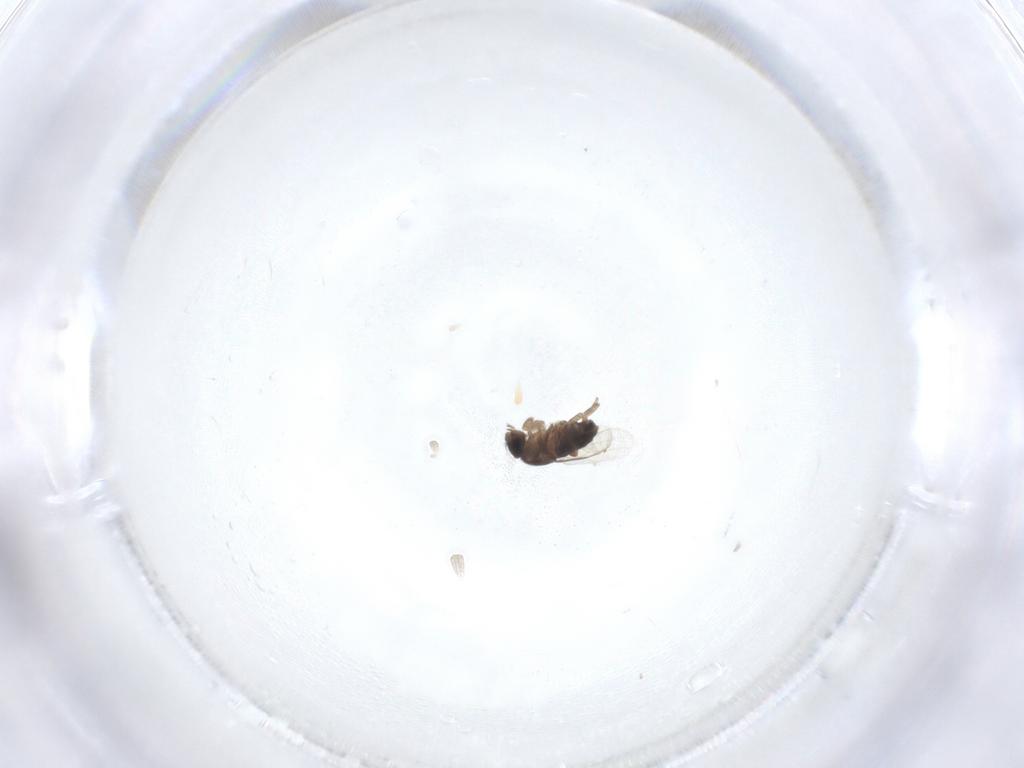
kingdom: Animalia
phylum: Arthropoda
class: Insecta
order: Diptera
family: Phoridae
